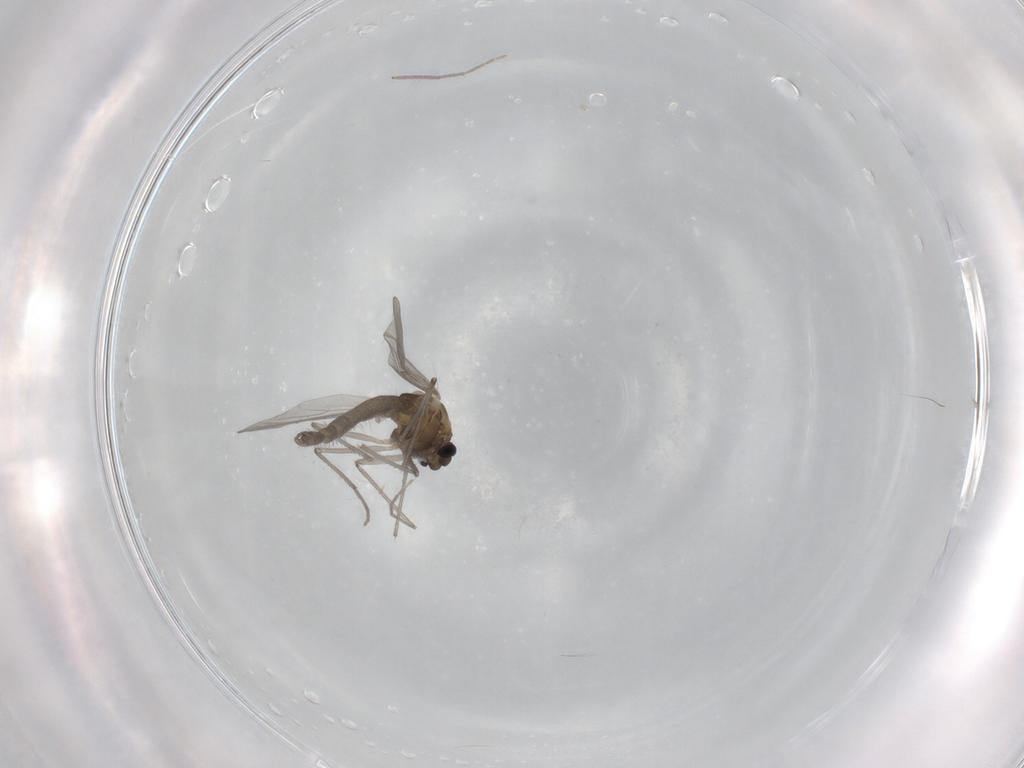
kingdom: Animalia
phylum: Arthropoda
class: Insecta
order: Diptera
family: Chironomidae
